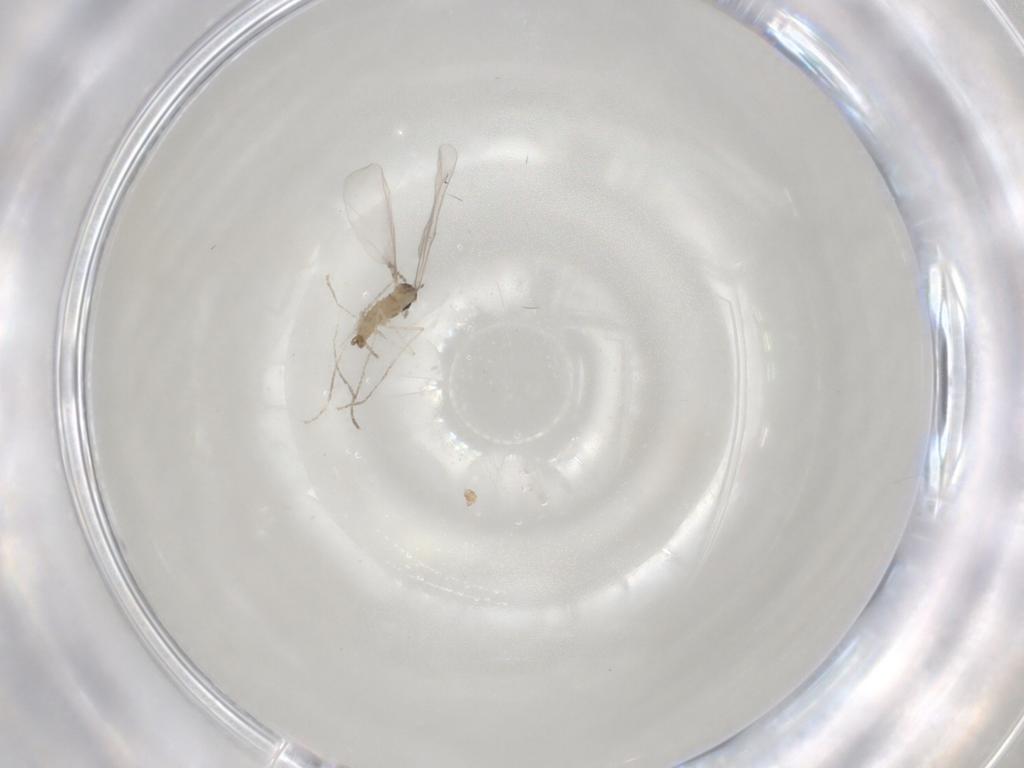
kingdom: Animalia
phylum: Arthropoda
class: Insecta
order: Diptera
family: Cecidomyiidae
